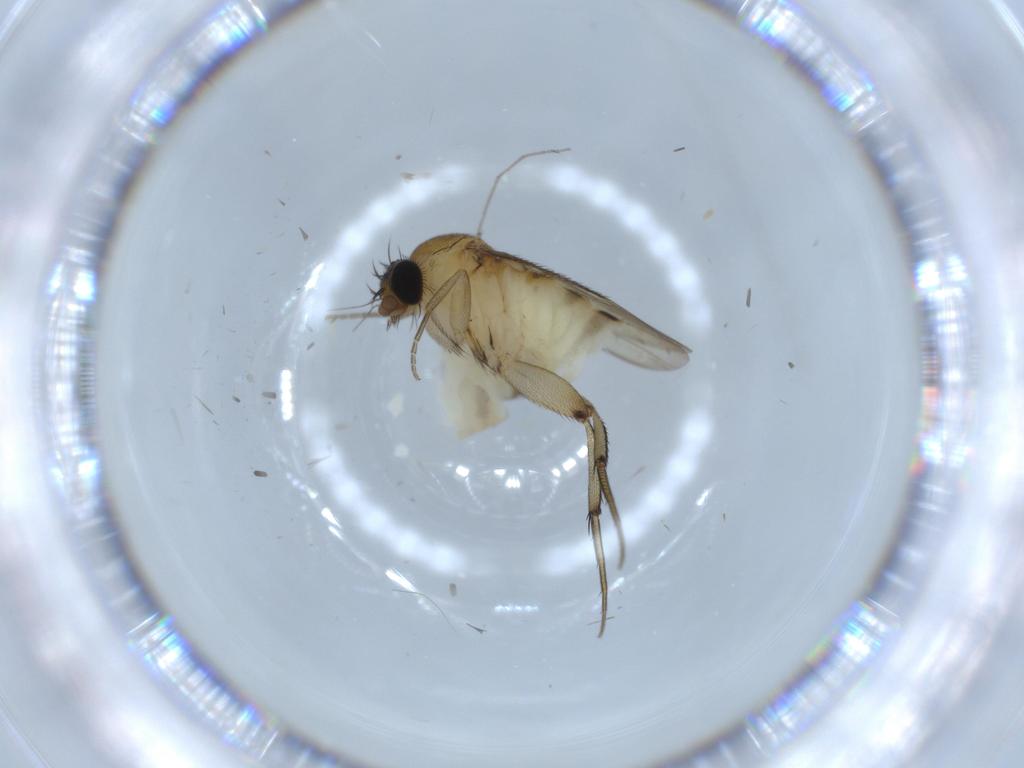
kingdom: Animalia
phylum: Arthropoda
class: Insecta
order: Diptera
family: Phoridae
